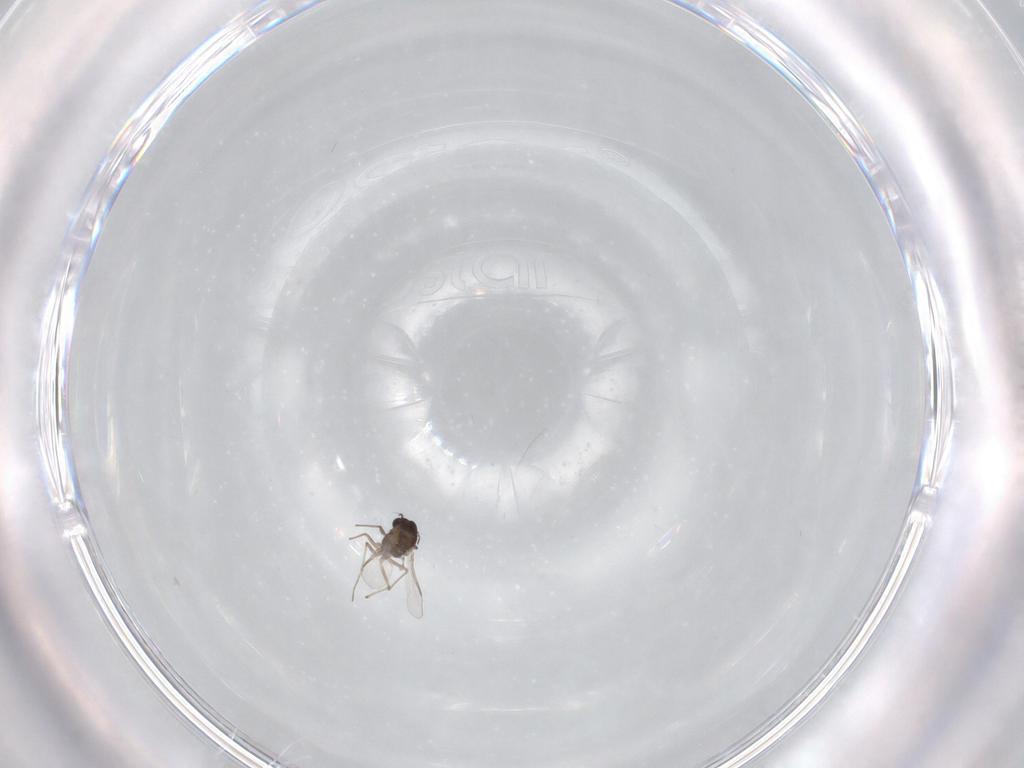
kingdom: Animalia
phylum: Arthropoda
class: Insecta
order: Diptera
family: Chironomidae
